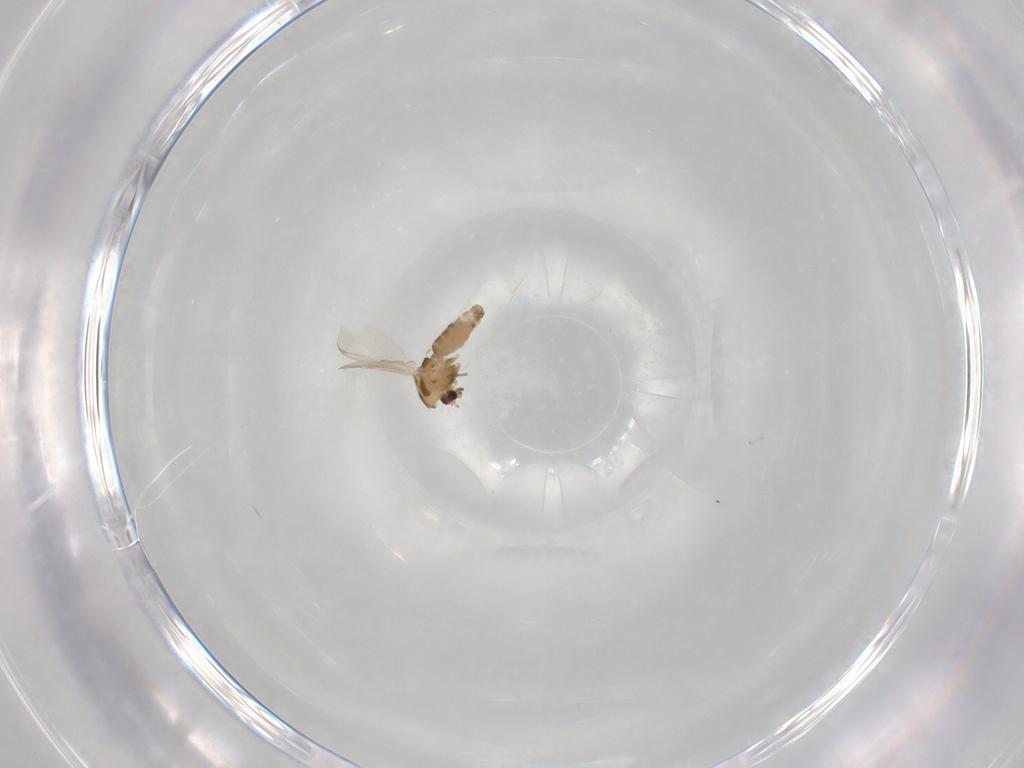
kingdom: Animalia
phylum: Arthropoda
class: Insecta
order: Diptera
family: Chironomidae
